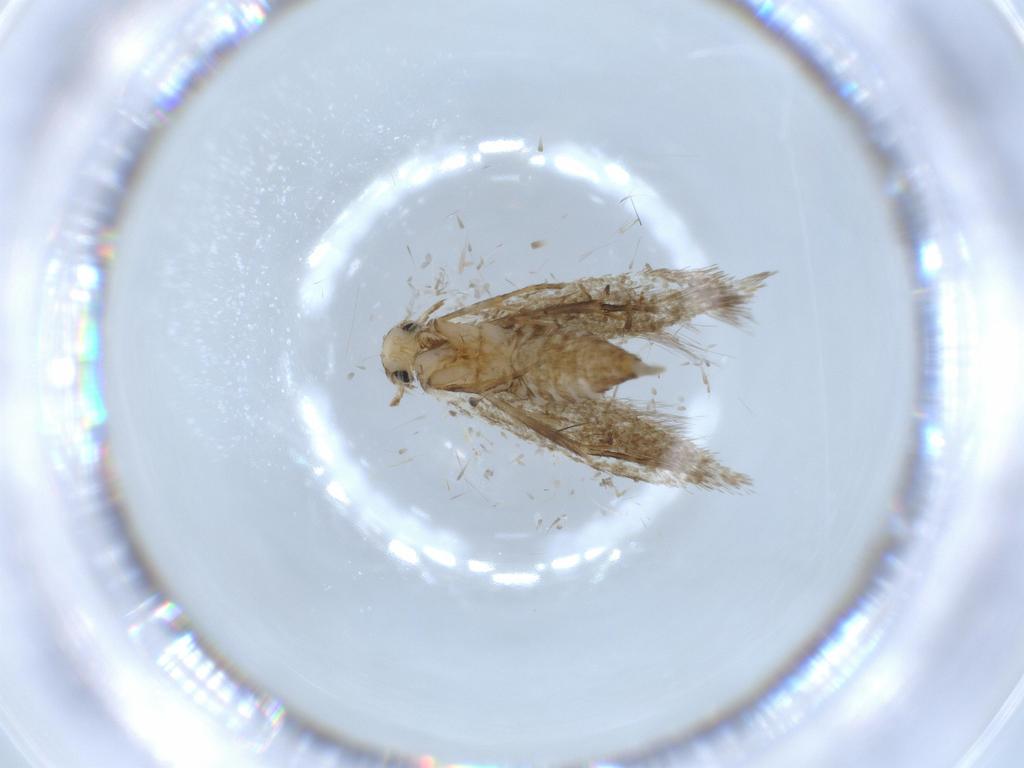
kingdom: Animalia
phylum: Arthropoda
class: Insecta
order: Lepidoptera
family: Tineidae
